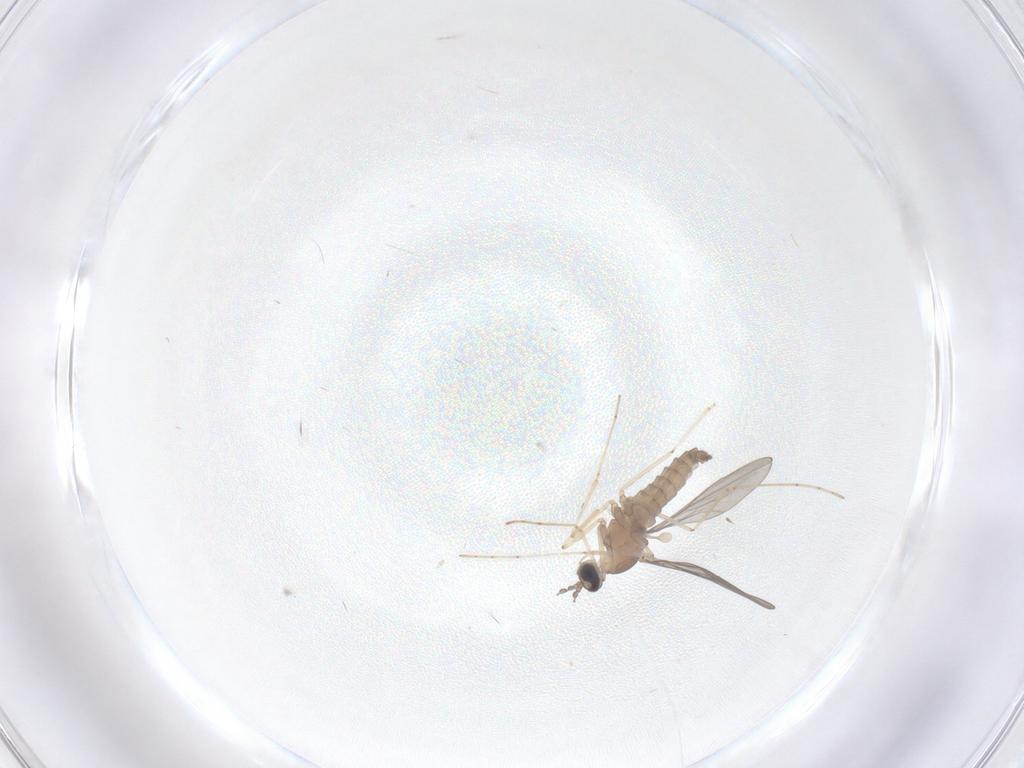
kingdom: Animalia
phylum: Arthropoda
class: Insecta
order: Diptera
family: Cecidomyiidae
